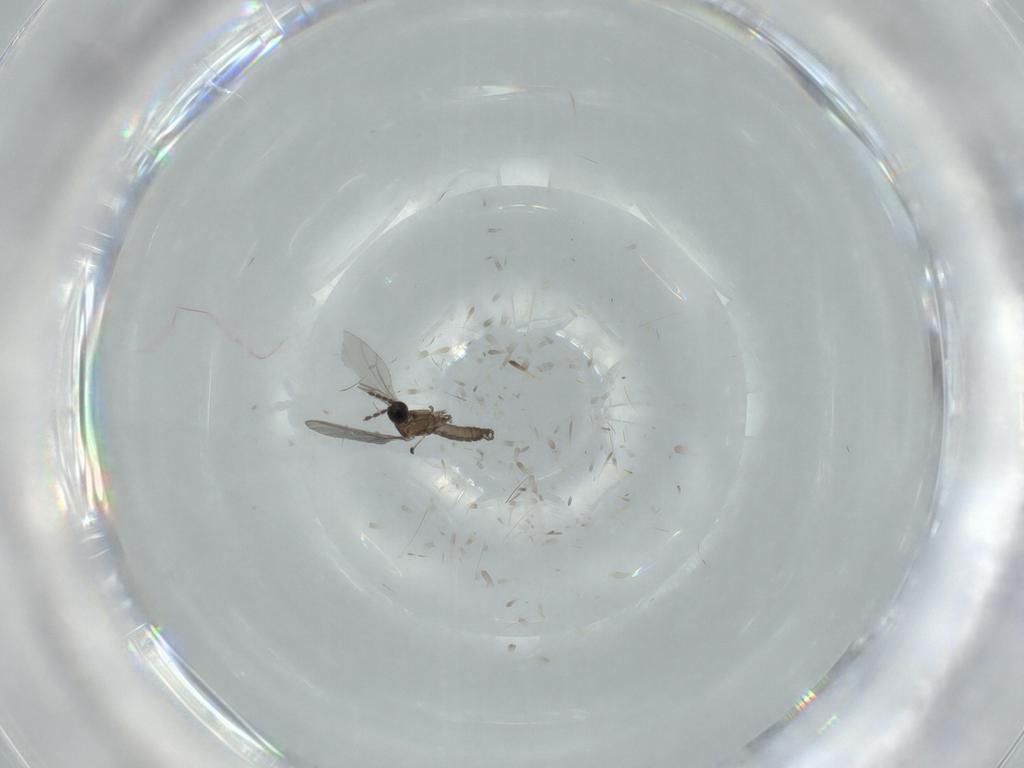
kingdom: Animalia
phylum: Arthropoda
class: Insecta
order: Diptera
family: Sciaridae
